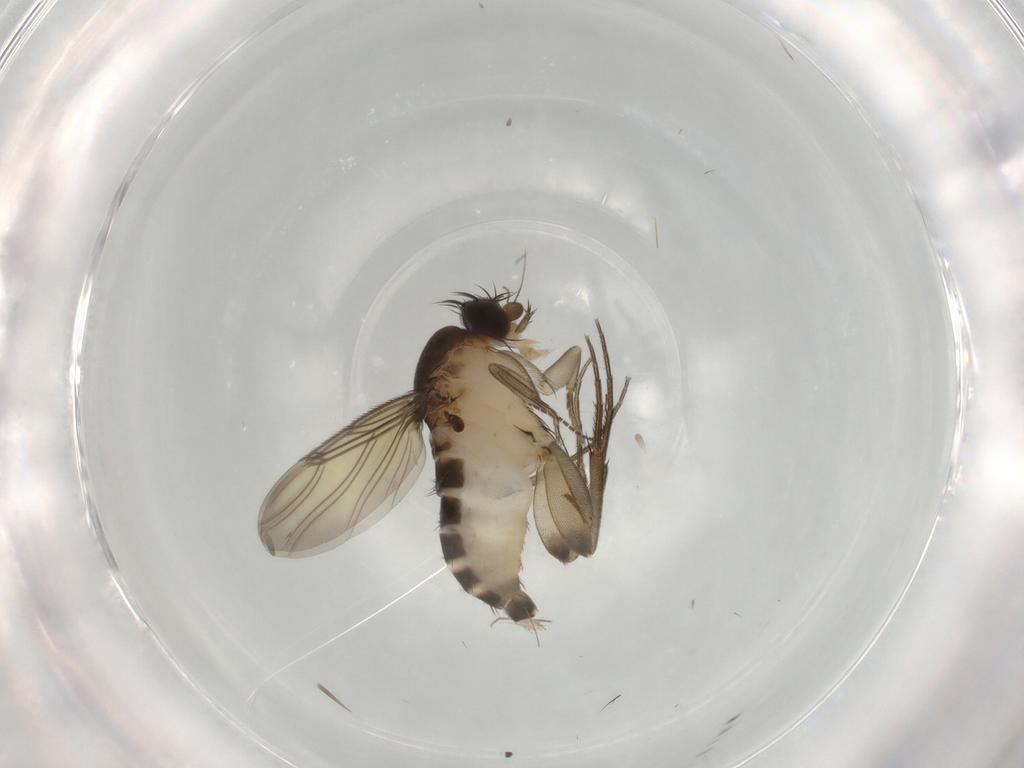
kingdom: Animalia
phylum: Arthropoda
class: Insecta
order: Diptera
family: Phoridae
